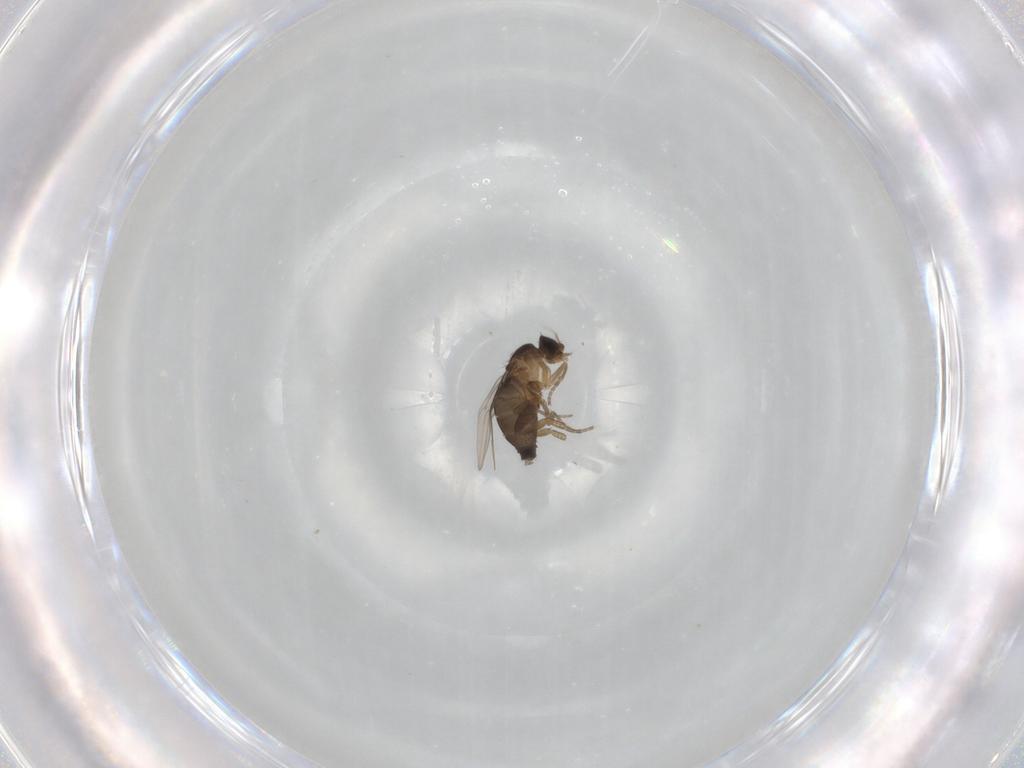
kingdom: Animalia
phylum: Arthropoda
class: Insecta
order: Diptera
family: Phoridae
